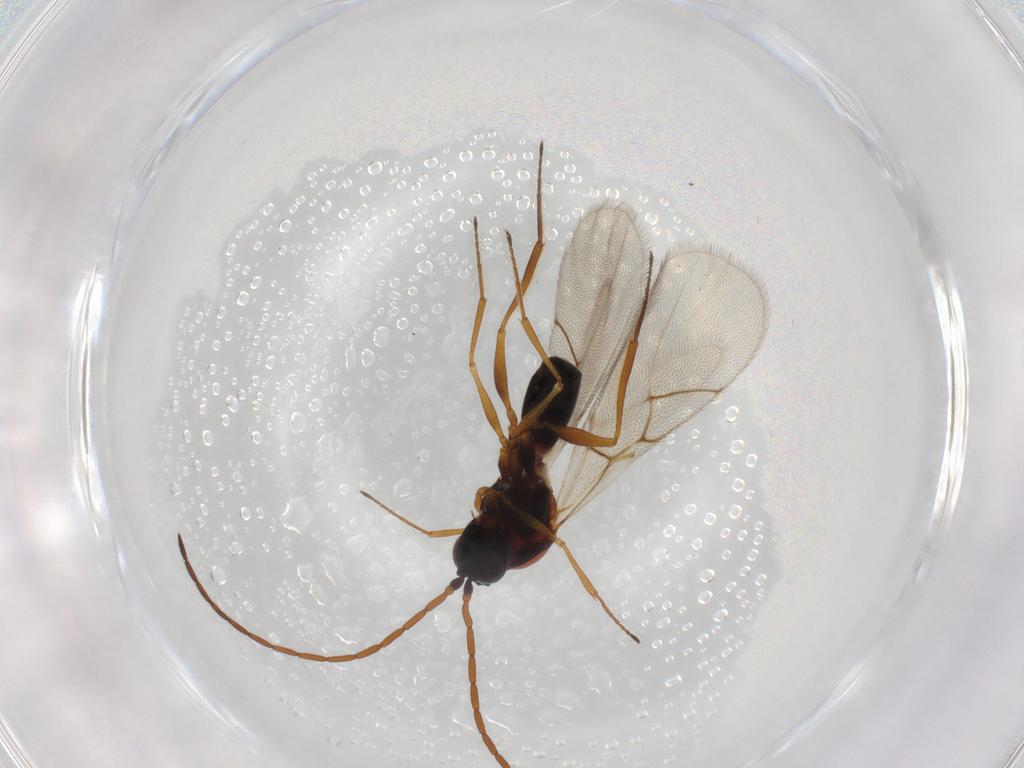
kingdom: Animalia
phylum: Arthropoda
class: Insecta
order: Hymenoptera
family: Figitidae
